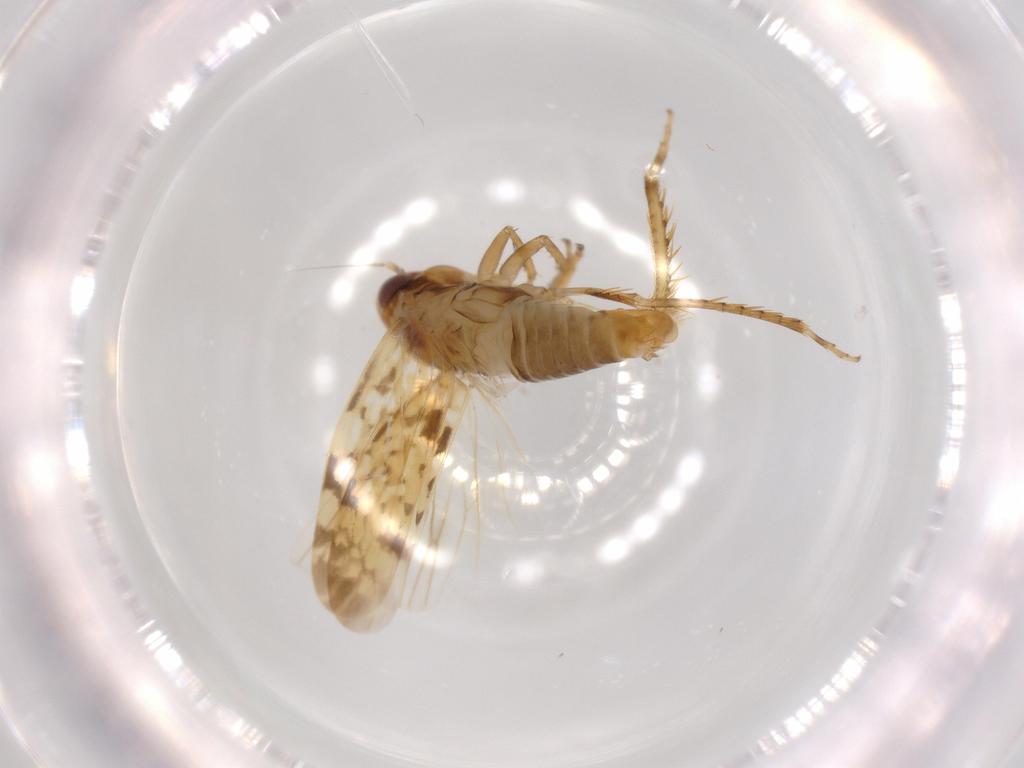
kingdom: Animalia
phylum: Arthropoda
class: Insecta
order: Hemiptera
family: Cicadellidae
